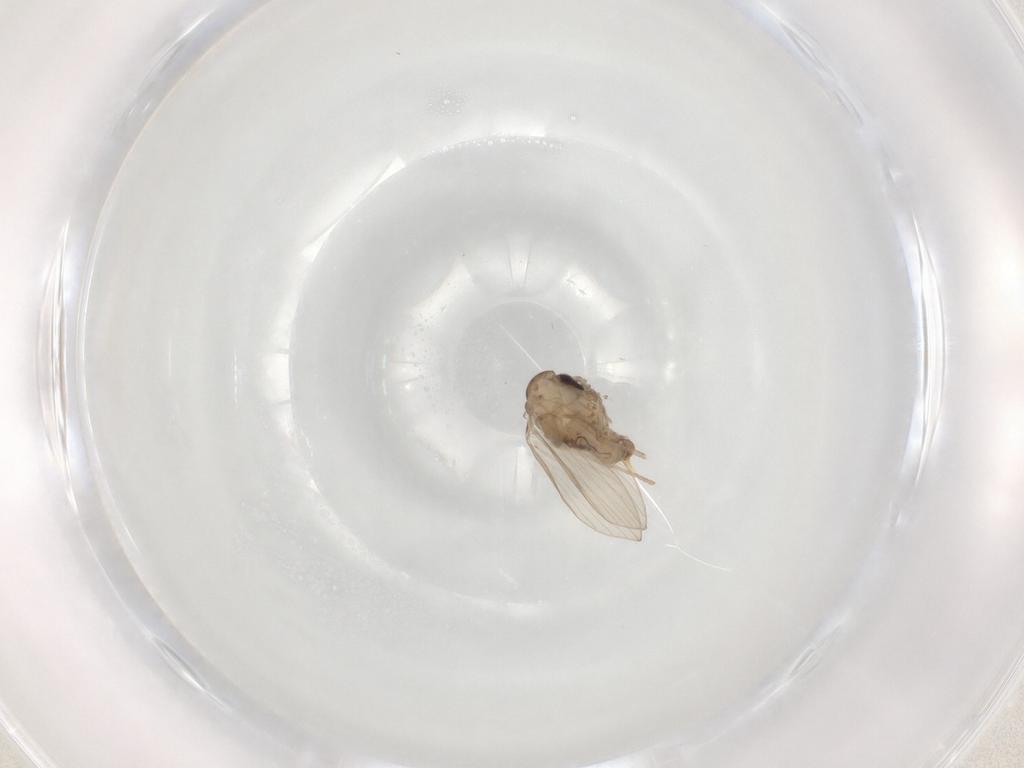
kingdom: Animalia
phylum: Arthropoda
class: Insecta
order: Diptera
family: Psychodidae
